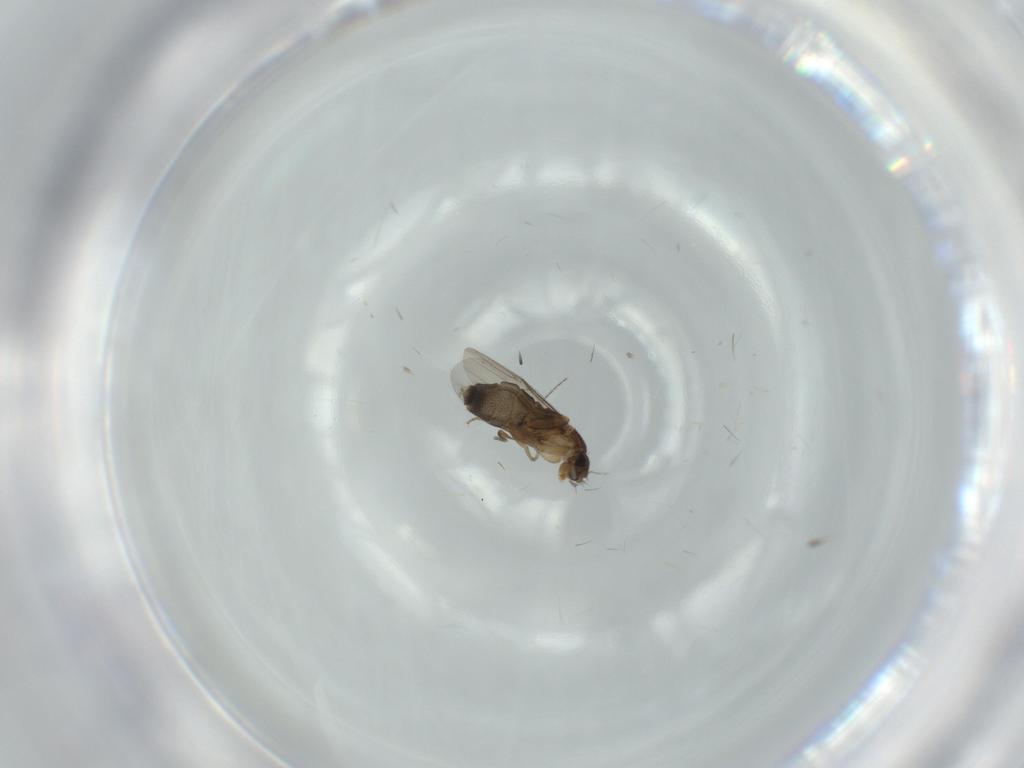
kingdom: Animalia
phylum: Arthropoda
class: Insecta
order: Diptera
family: Phoridae
